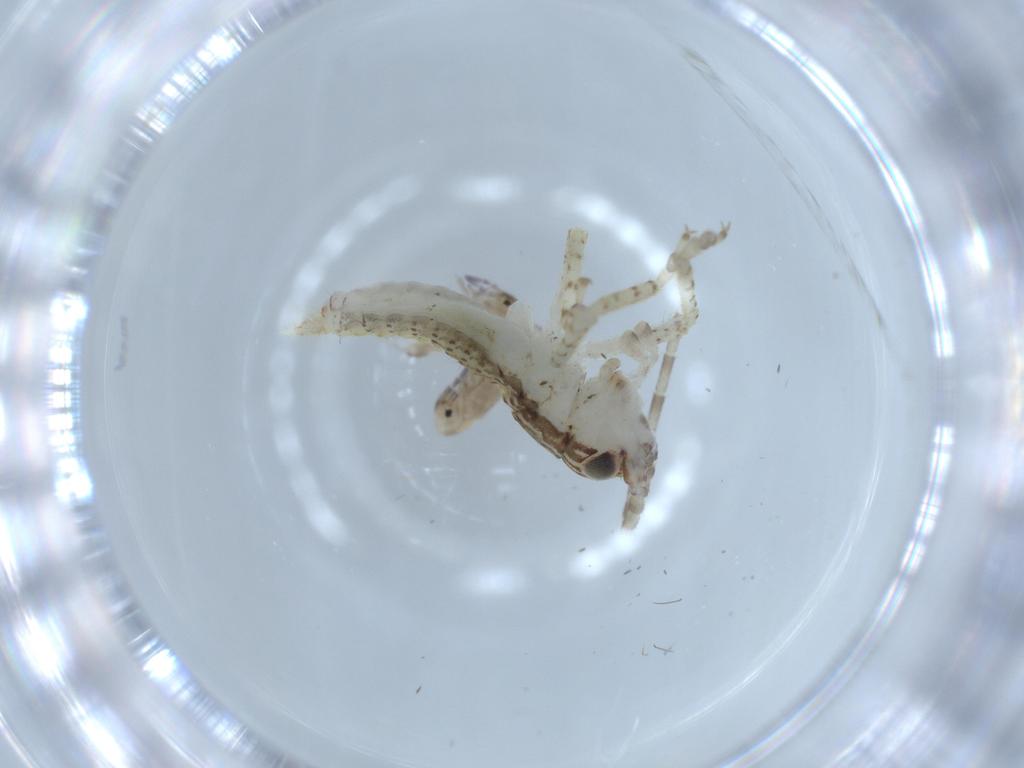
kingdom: Animalia
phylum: Arthropoda
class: Insecta
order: Orthoptera
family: Gryllidae
